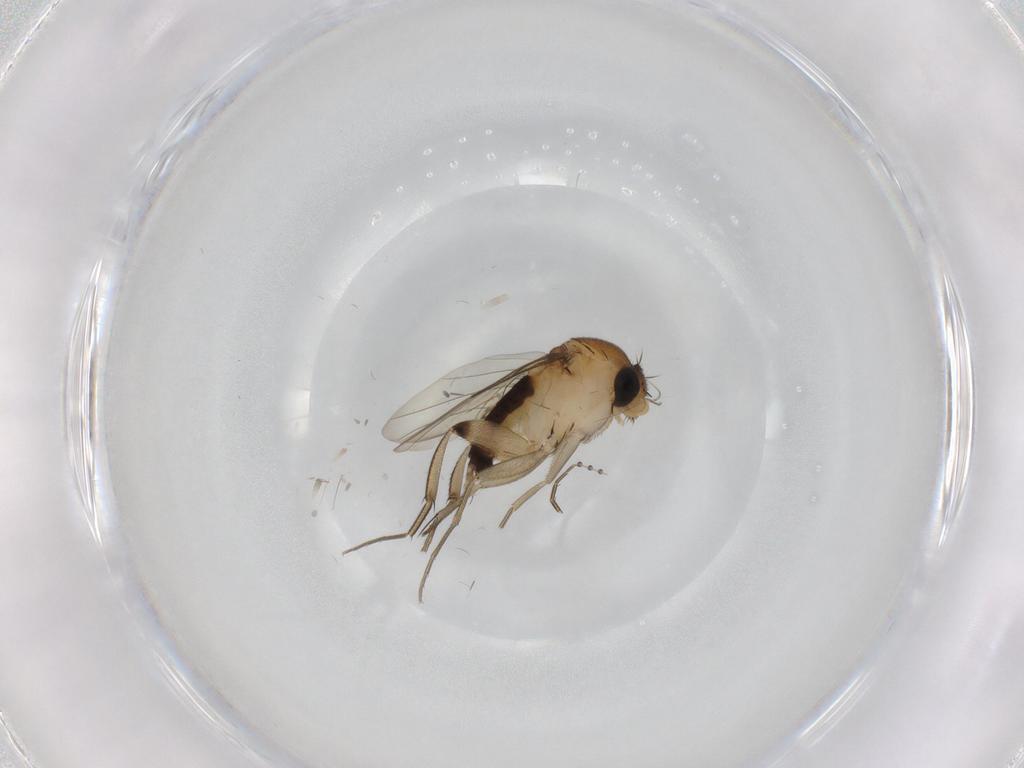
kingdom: Animalia
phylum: Arthropoda
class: Insecta
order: Diptera
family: Phoridae
